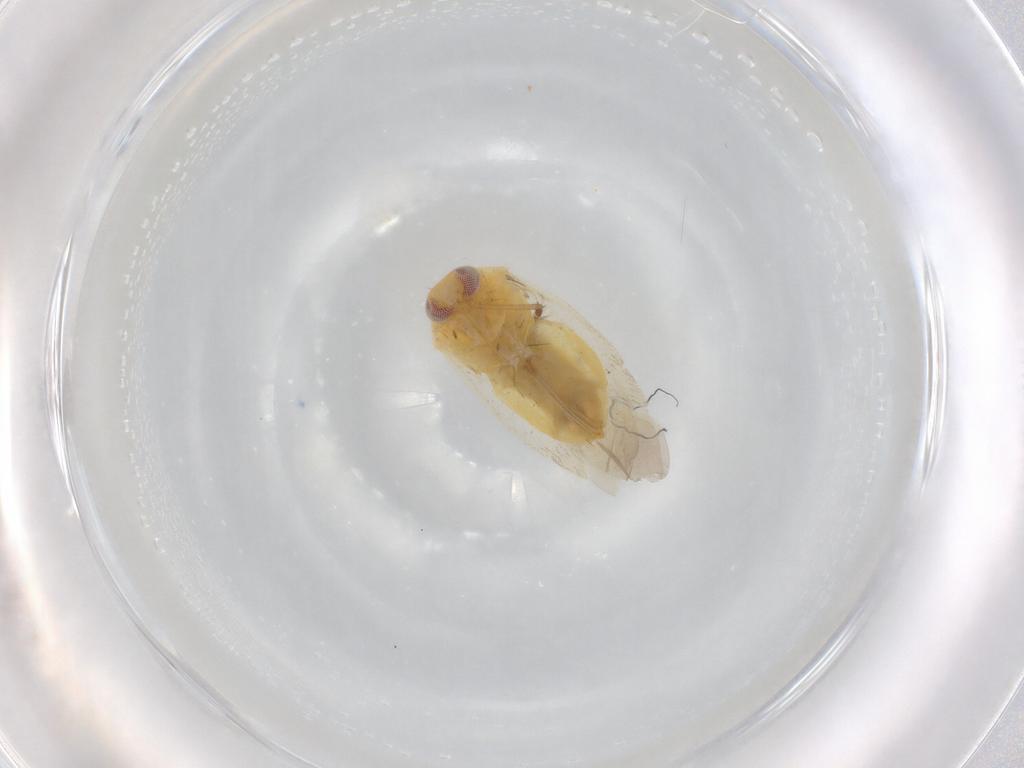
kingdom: Animalia
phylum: Arthropoda
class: Insecta
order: Hemiptera
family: Miridae
